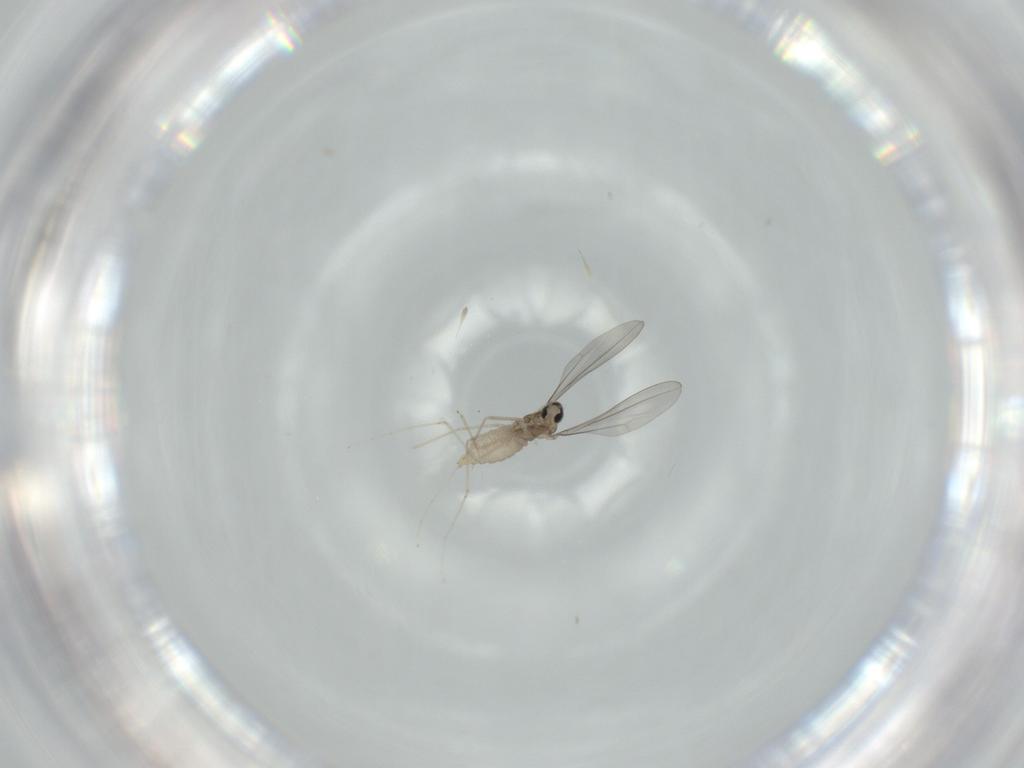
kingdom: Animalia
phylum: Arthropoda
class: Insecta
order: Diptera
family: Cecidomyiidae
